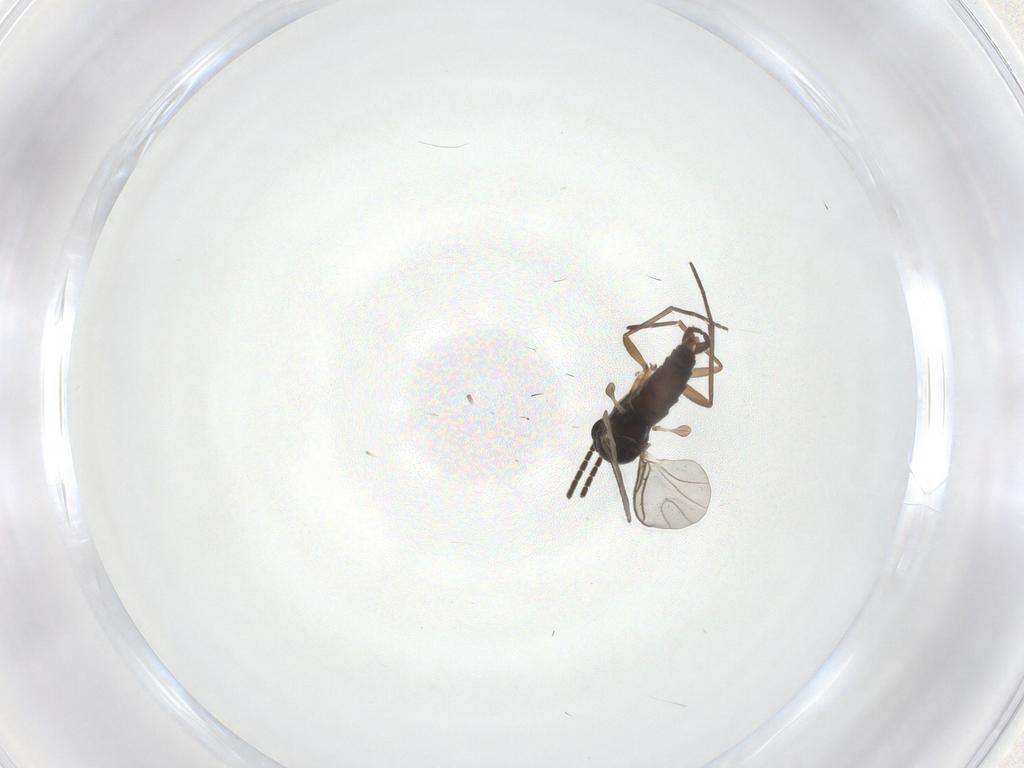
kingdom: Animalia
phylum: Arthropoda
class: Insecta
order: Diptera
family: Sciaridae
